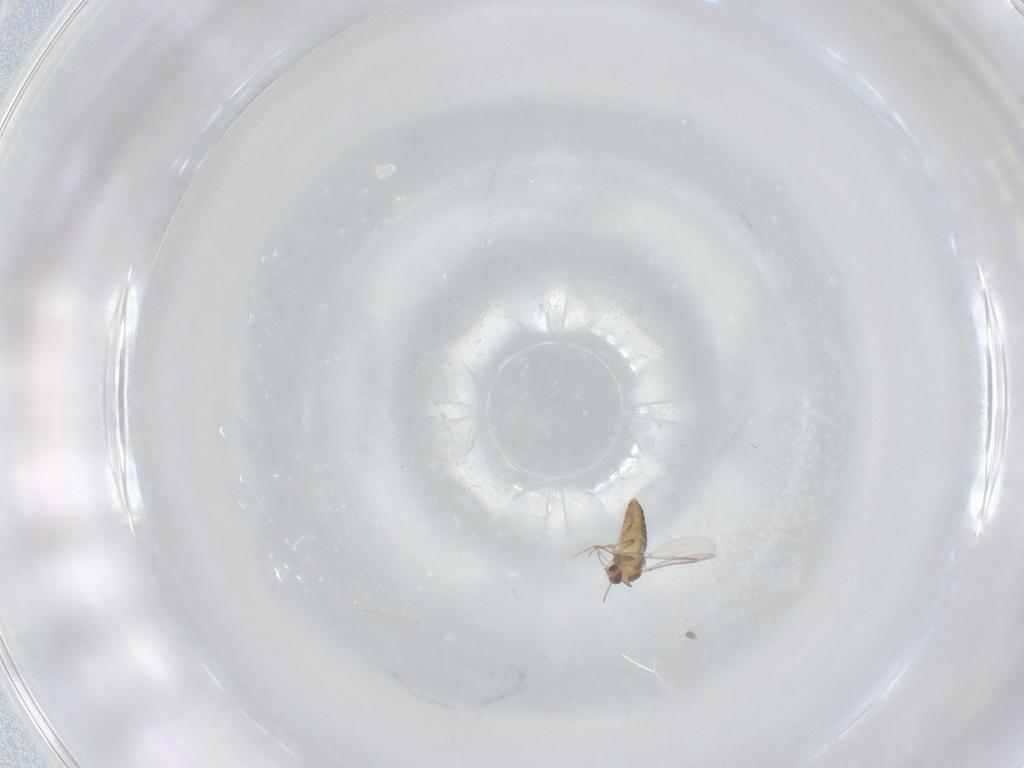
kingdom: Animalia
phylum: Arthropoda
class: Insecta
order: Diptera
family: Chironomidae
